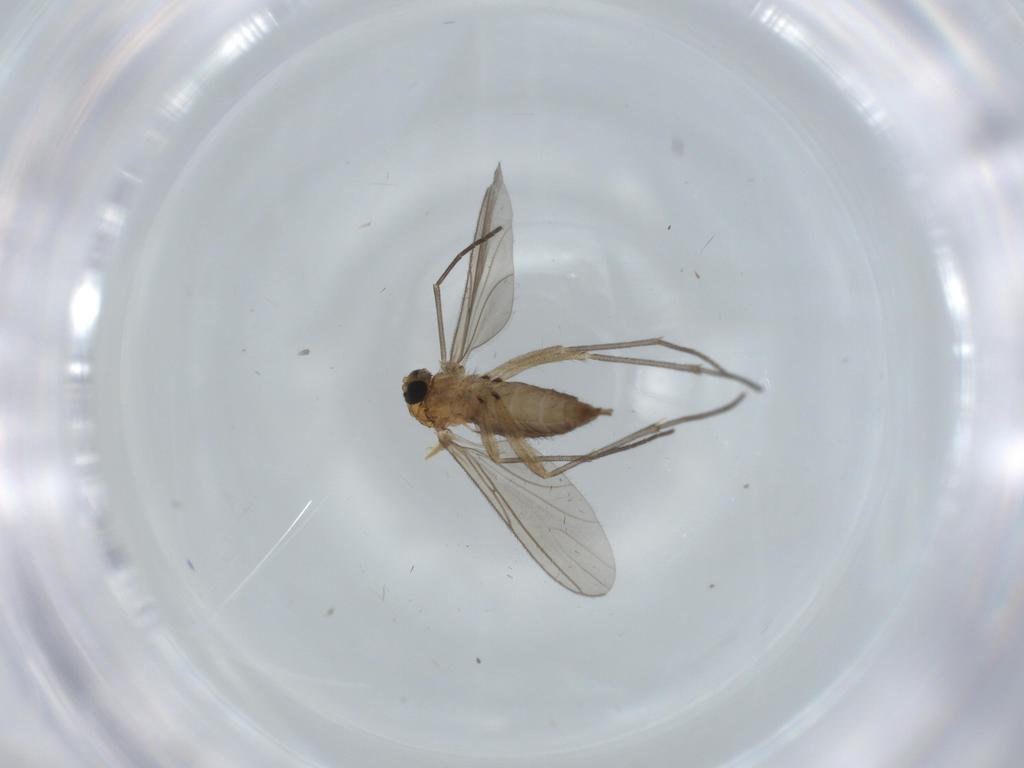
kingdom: Animalia
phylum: Arthropoda
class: Insecta
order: Diptera
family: Sciaridae
